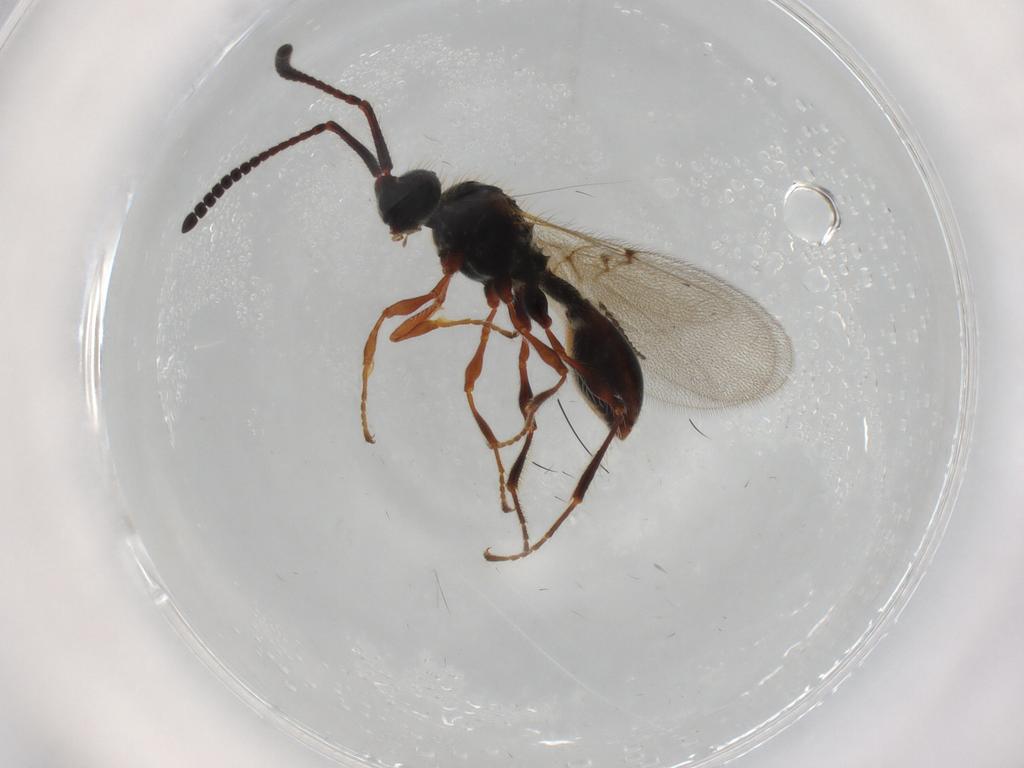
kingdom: Animalia
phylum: Arthropoda
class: Insecta
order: Hymenoptera
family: Diapriidae
